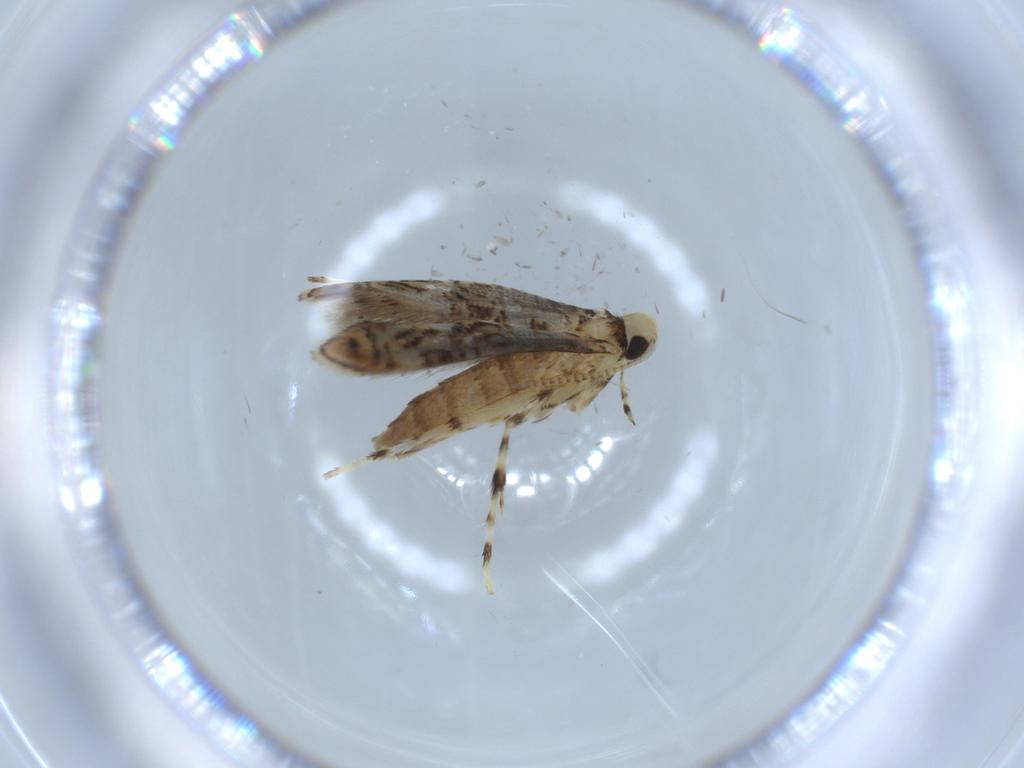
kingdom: Animalia
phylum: Arthropoda
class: Insecta
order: Lepidoptera
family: Gracillariidae
